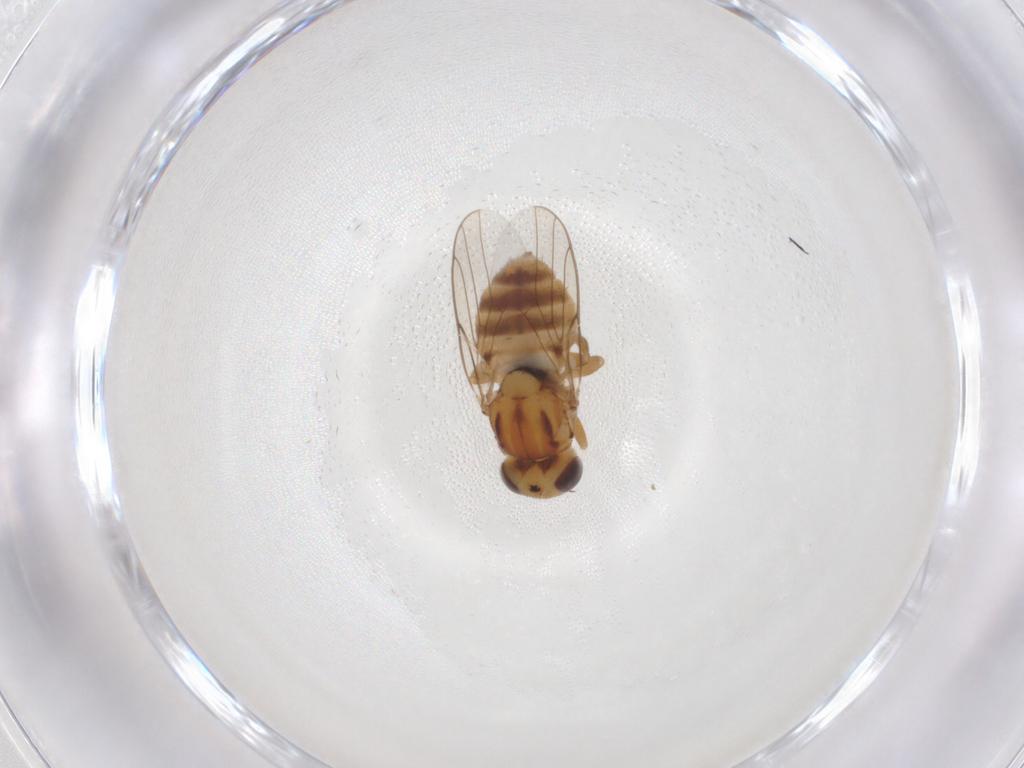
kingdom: Animalia
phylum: Arthropoda
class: Insecta
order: Diptera
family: Chloropidae
